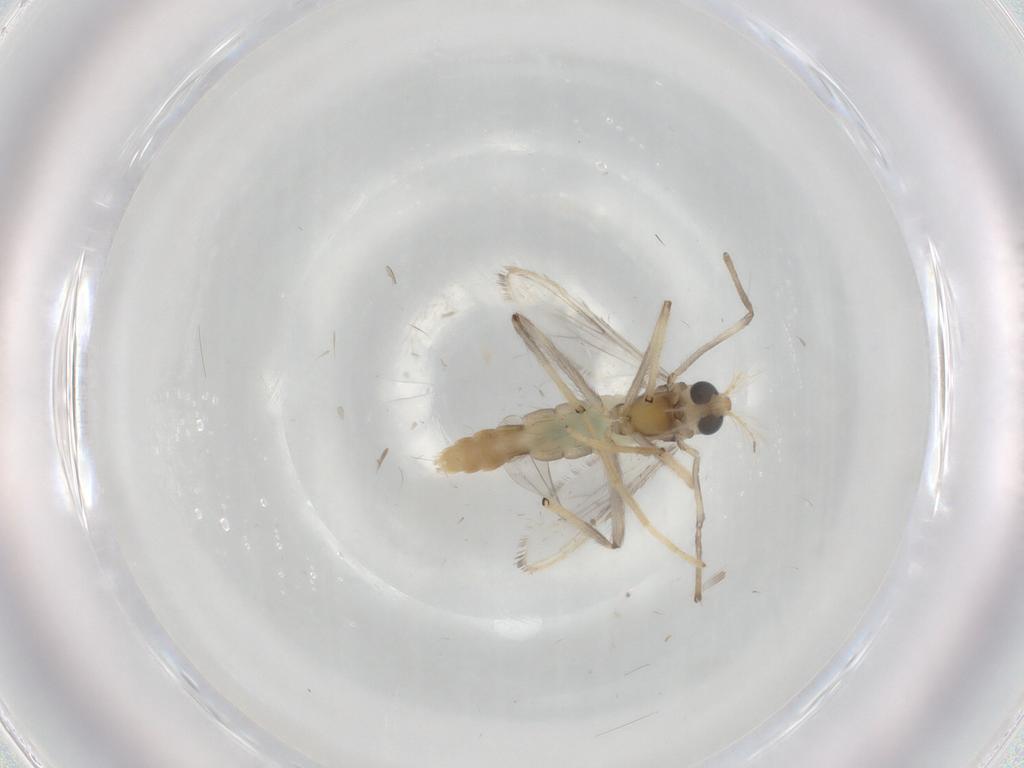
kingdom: Animalia
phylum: Arthropoda
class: Insecta
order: Diptera
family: Chironomidae
